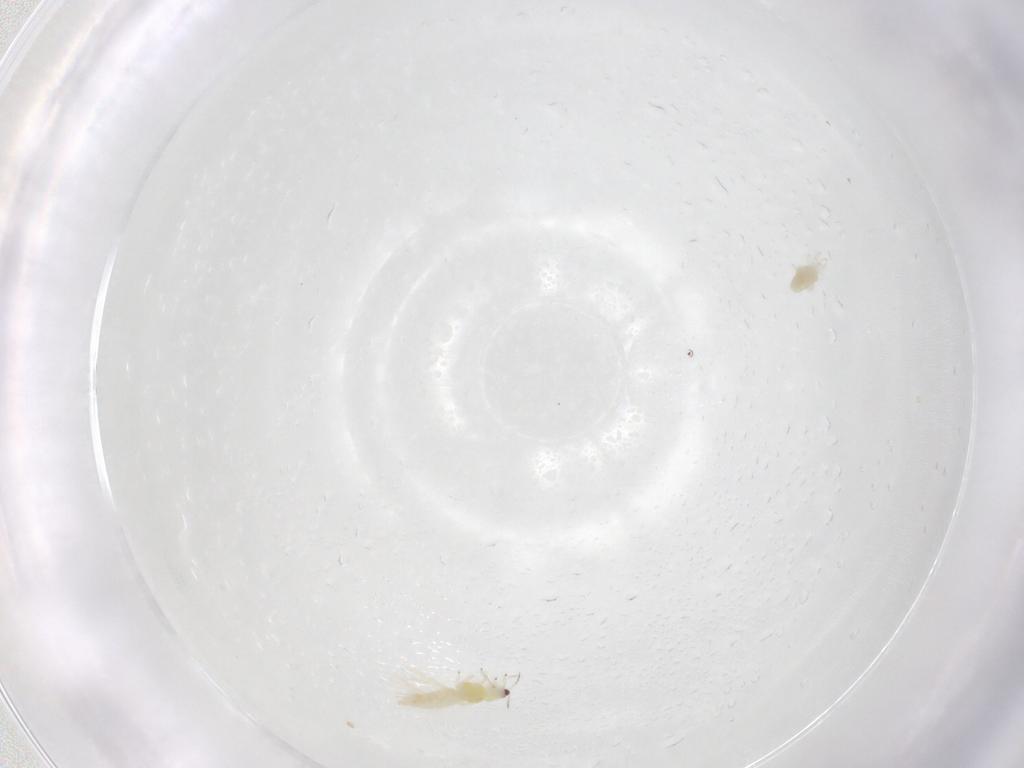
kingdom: Animalia
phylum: Arthropoda
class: Insecta
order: Thysanoptera
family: Thripidae
